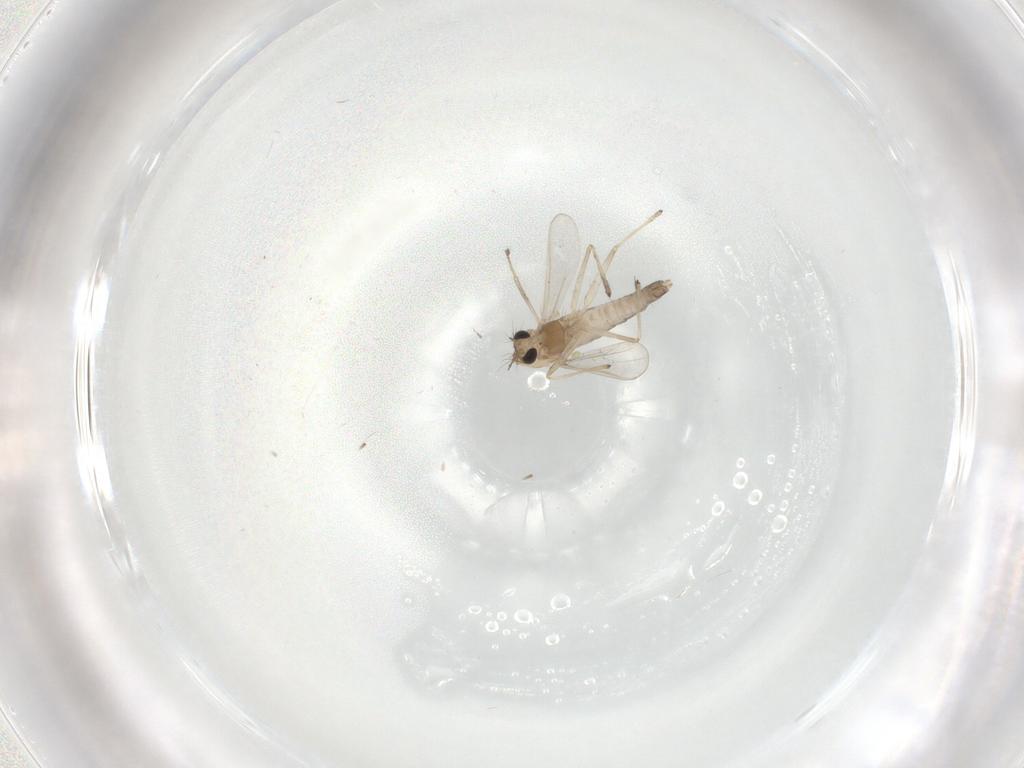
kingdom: Animalia
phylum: Arthropoda
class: Insecta
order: Diptera
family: Chironomidae
